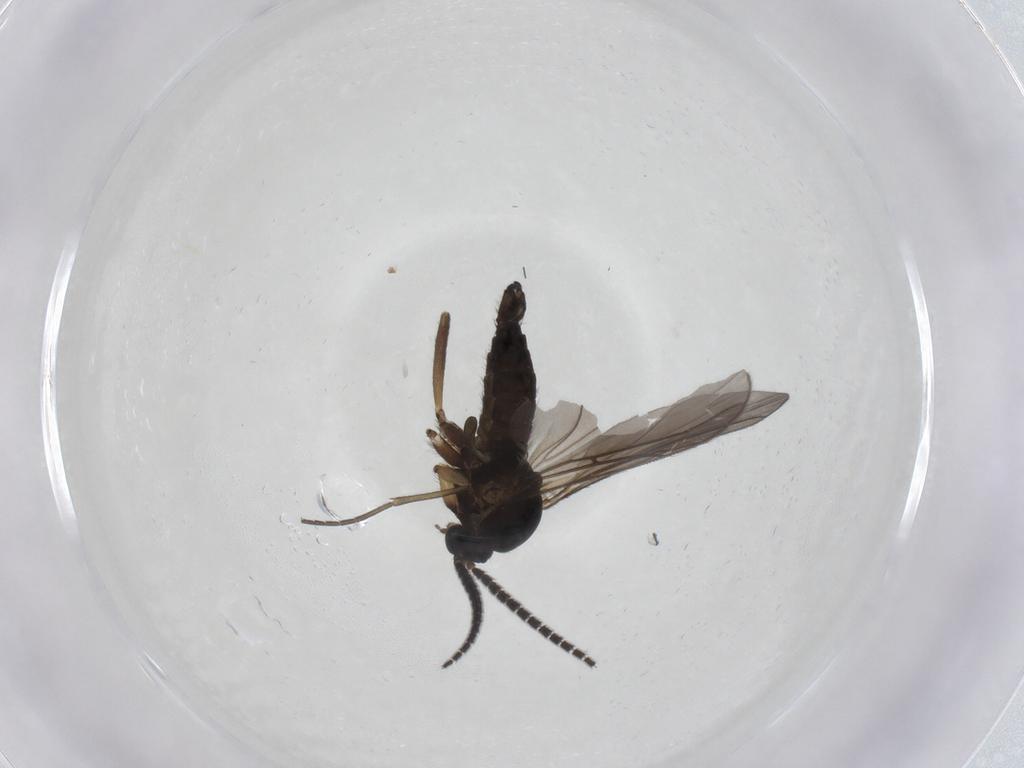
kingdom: Animalia
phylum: Arthropoda
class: Insecta
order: Diptera
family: Sciaridae
